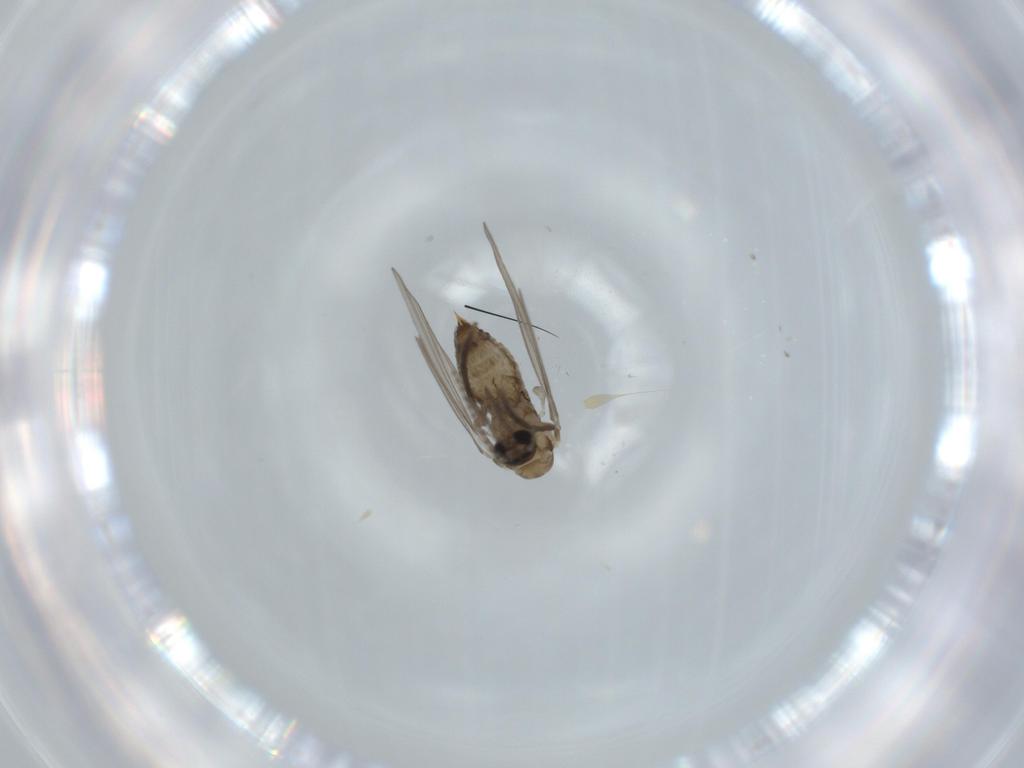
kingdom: Animalia
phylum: Arthropoda
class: Insecta
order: Diptera
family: Psychodidae
